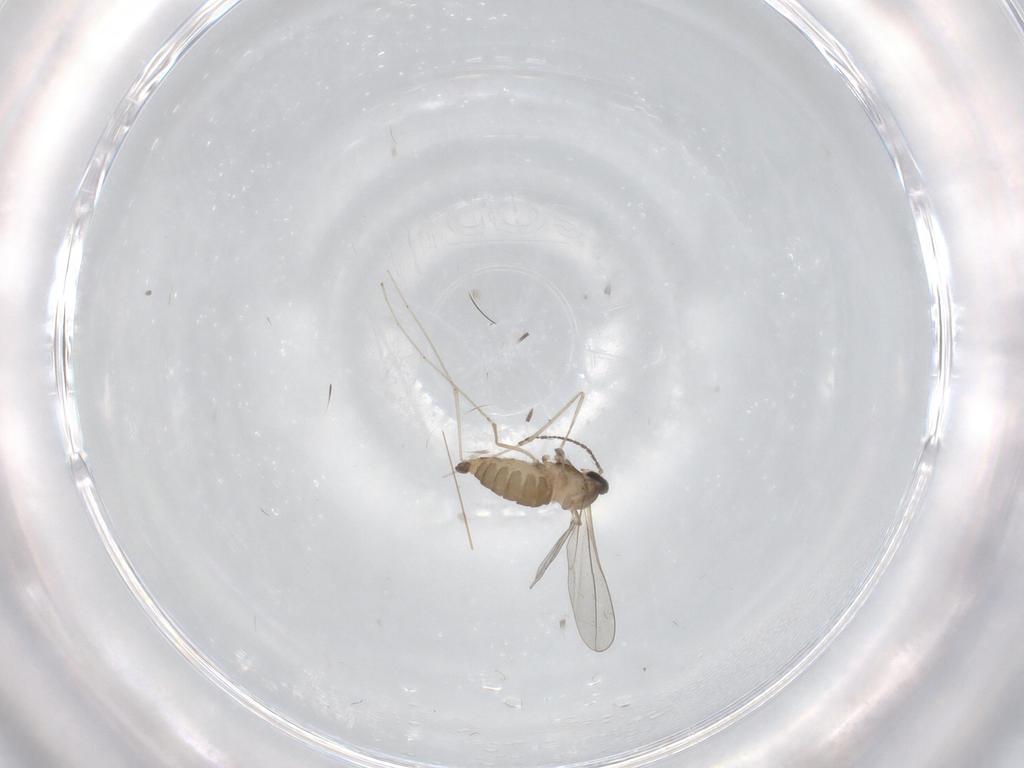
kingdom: Animalia
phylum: Arthropoda
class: Insecta
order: Diptera
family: Cecidomyiidae
